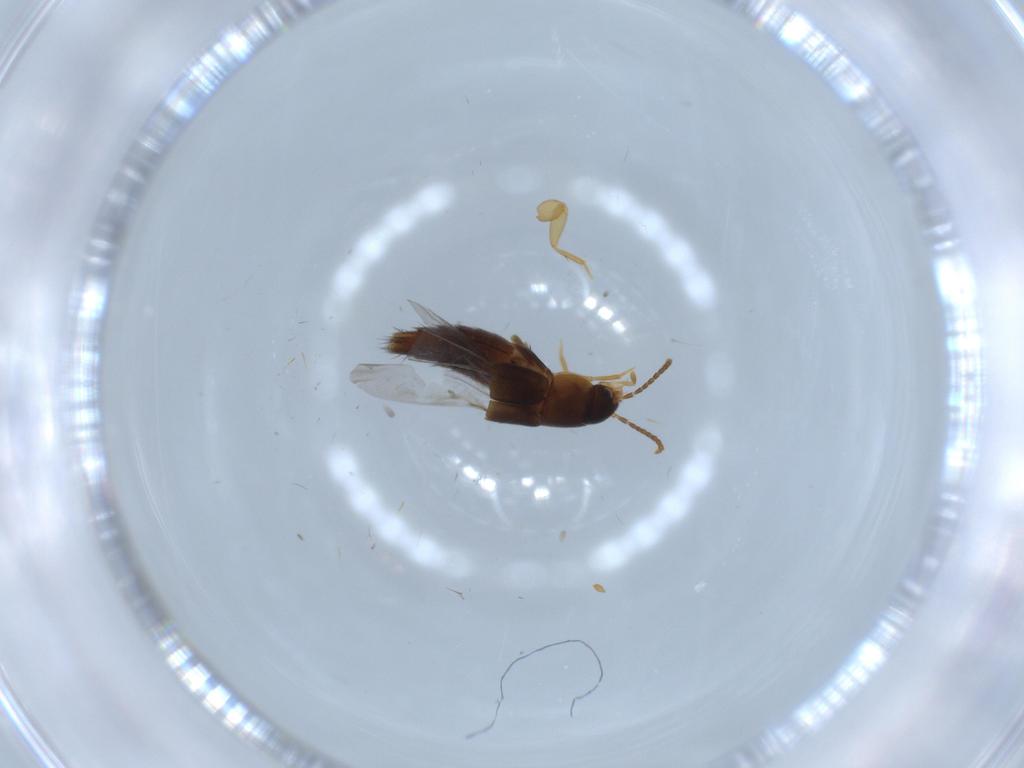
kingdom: Animalia
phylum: Arthropoda
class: Insecta
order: Coleoptera
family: Staphylinidae
